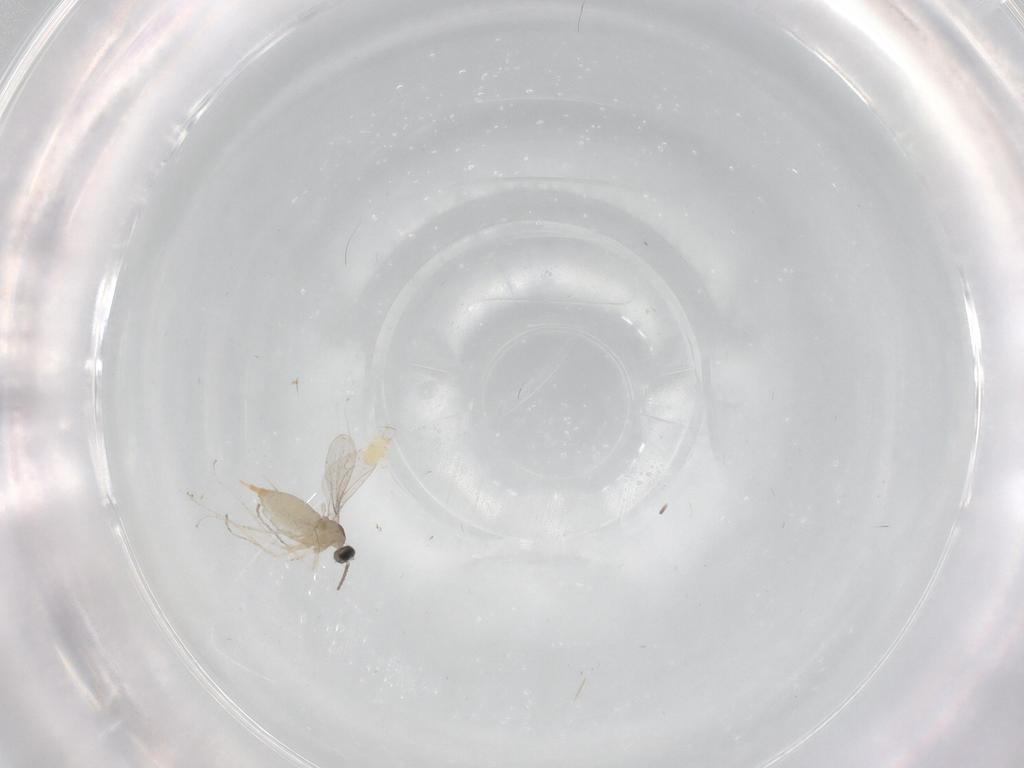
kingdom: Animalia
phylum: Arthropoda
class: Insecta
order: Diptera
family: Cecidomyiidae
